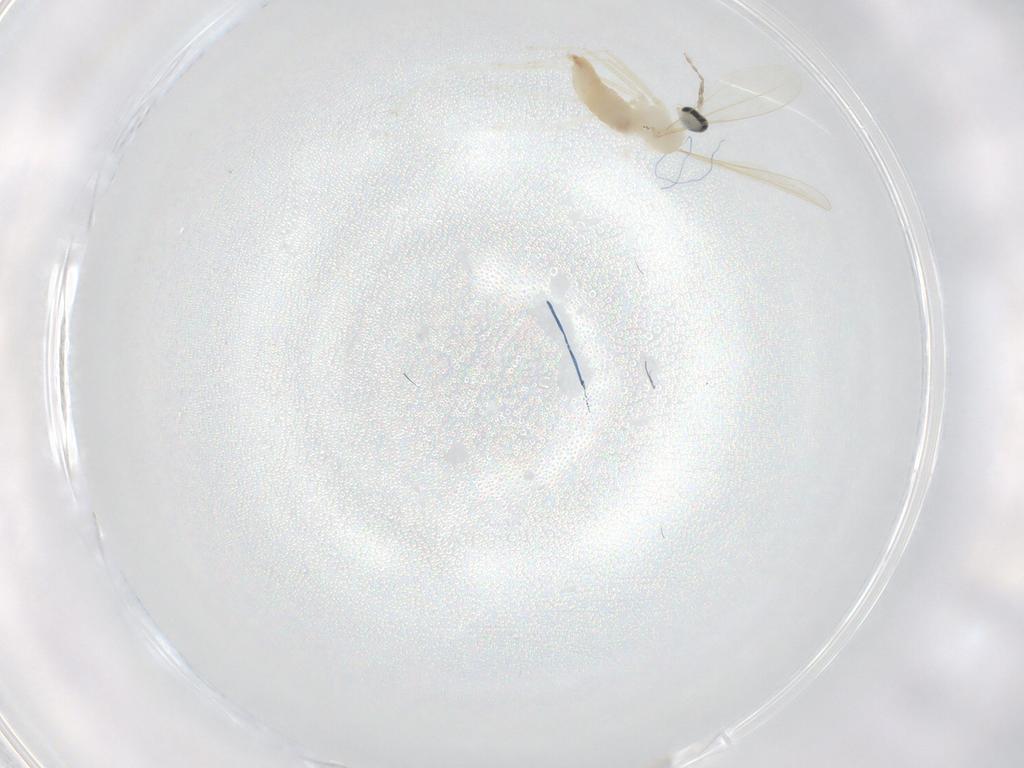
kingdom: Animalia
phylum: Arthropoda
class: Insecta
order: Diptera
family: Cecidomyiidae
